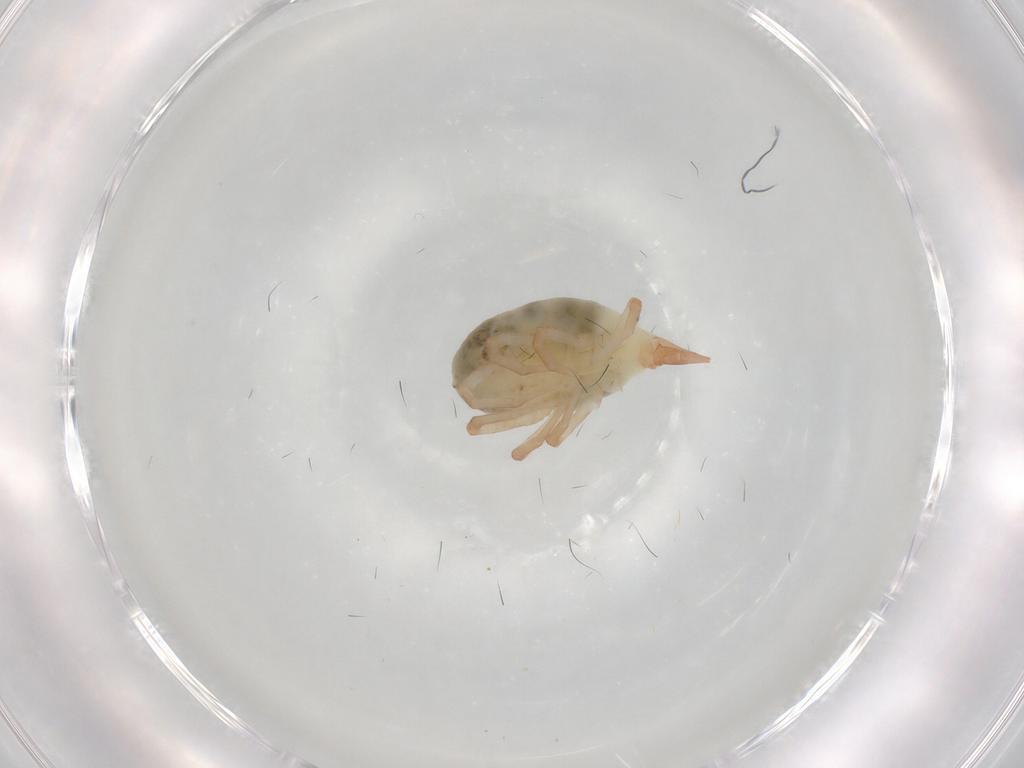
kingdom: Animalia
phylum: Arthropoda
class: Arachnida
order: Trombidiformes
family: Bdellidae
